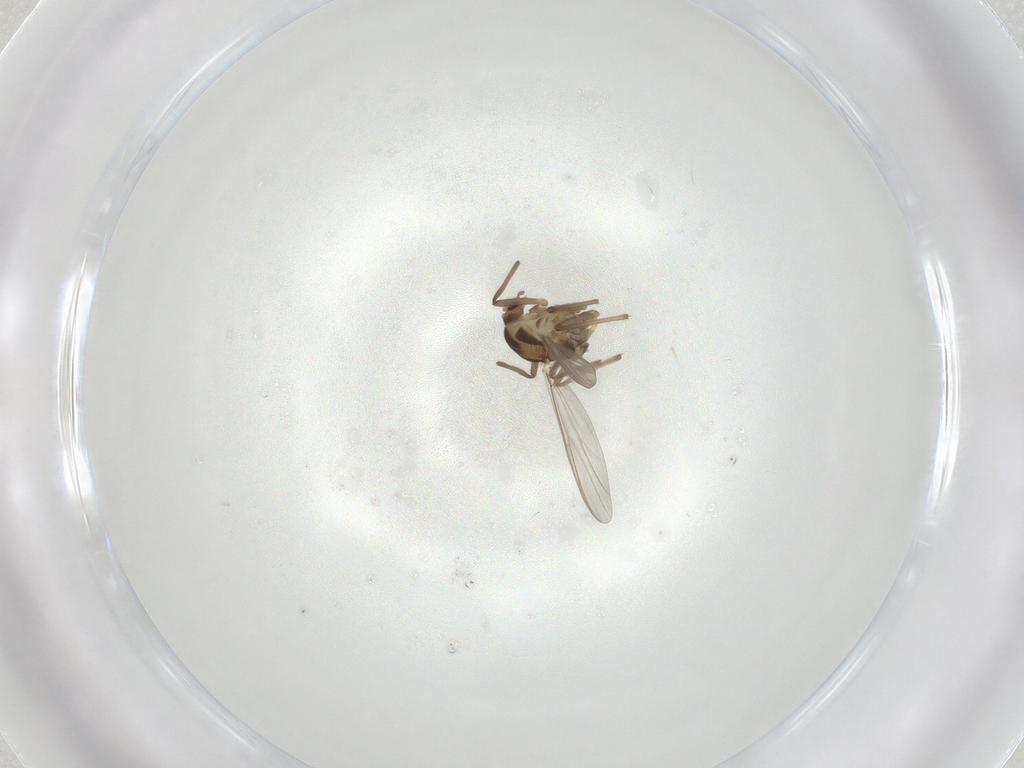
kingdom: Animalia
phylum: Arthropoda
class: Insecta
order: Diptera
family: Chironomidae
